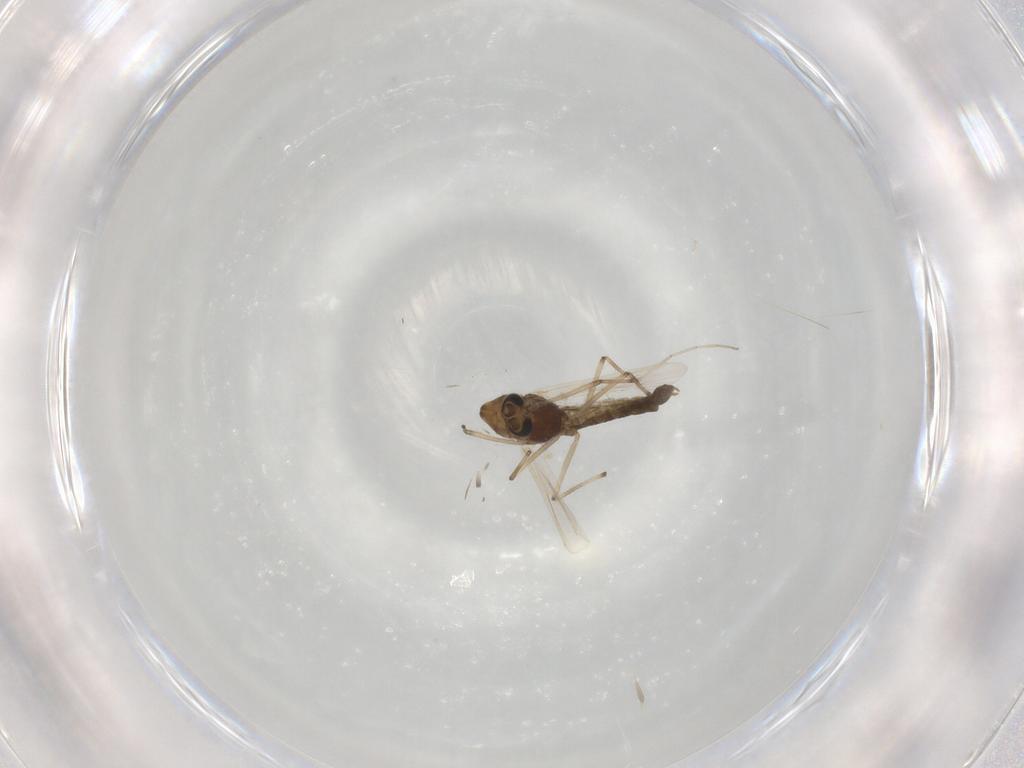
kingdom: Animalia
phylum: Arthropoda
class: Insecta
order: Diptera
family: Chironomidae
